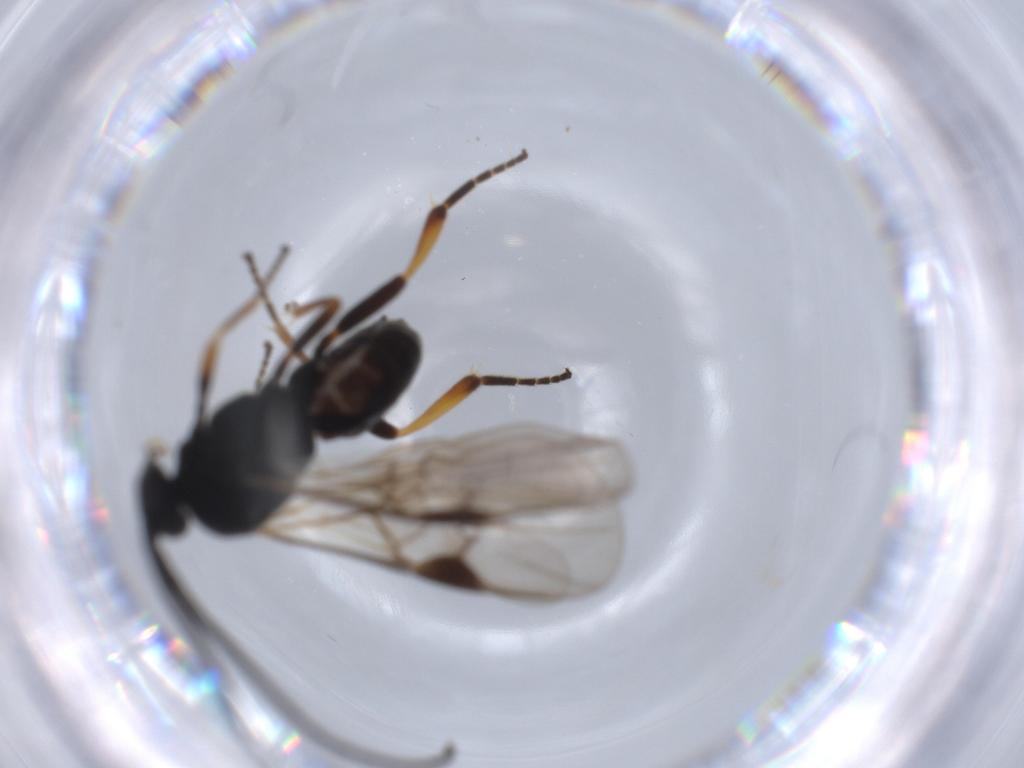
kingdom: Animalia
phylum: Arthropoda
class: Insecta
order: Hymenoptera
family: Braconidae
